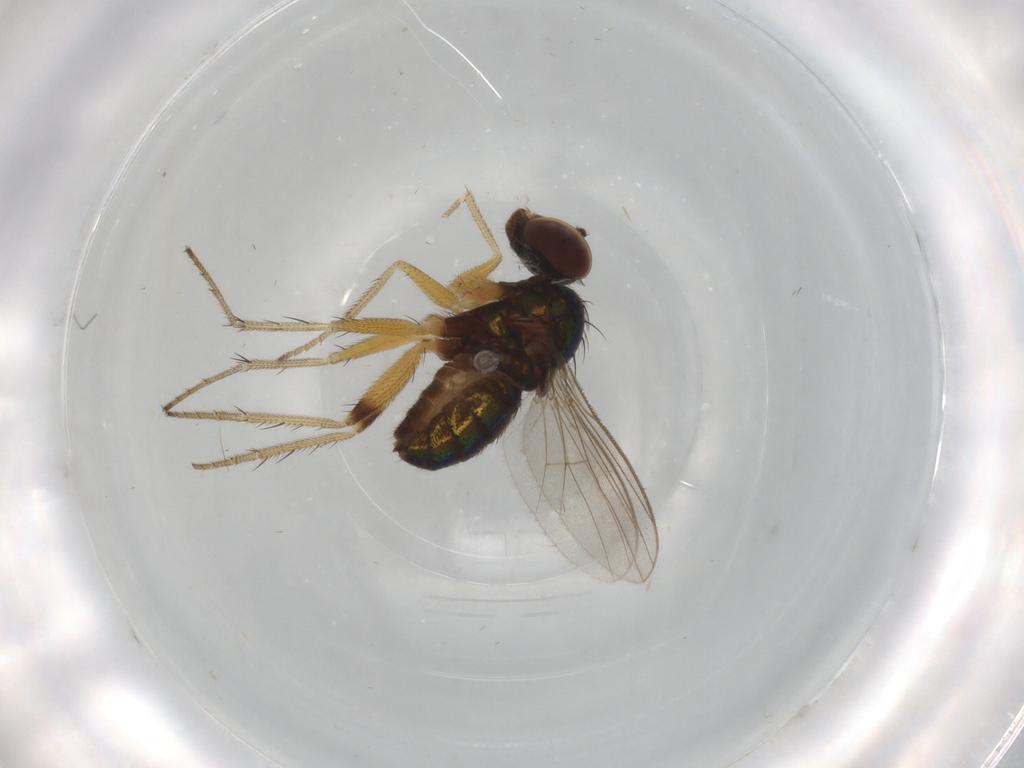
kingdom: Animalia
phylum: Arthropoda
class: Insecta
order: Diptera
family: Dolichopodidae
